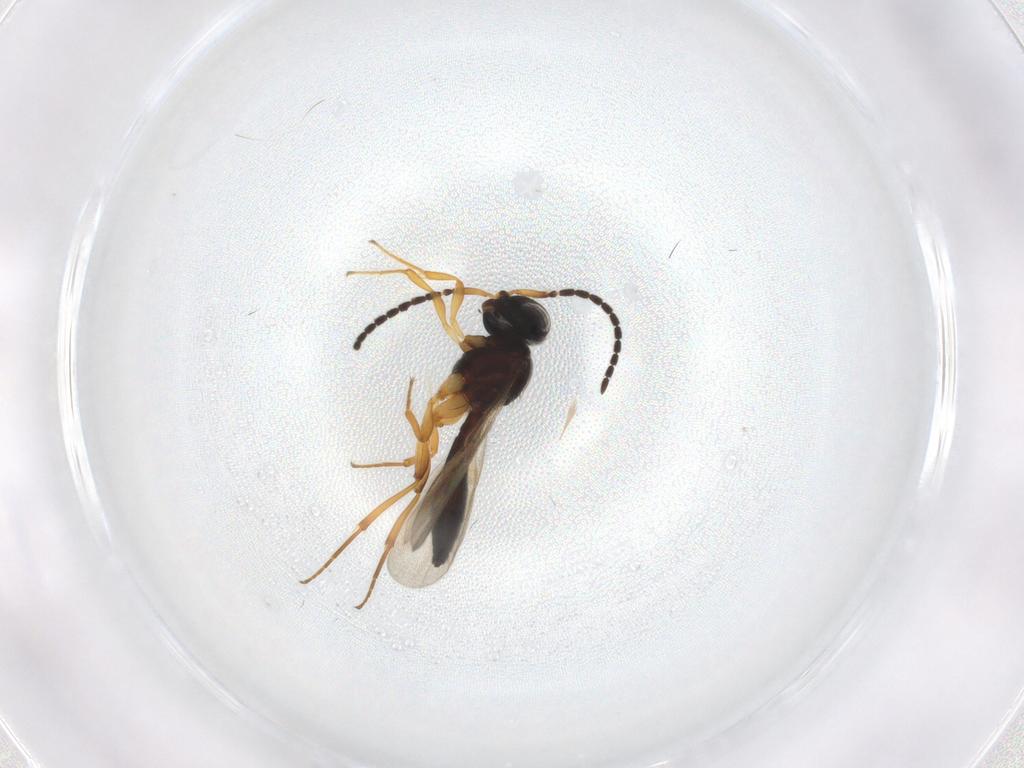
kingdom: Animalia
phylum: Arthropoda
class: Insecta
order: Hymenoptera
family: Scelionidae
